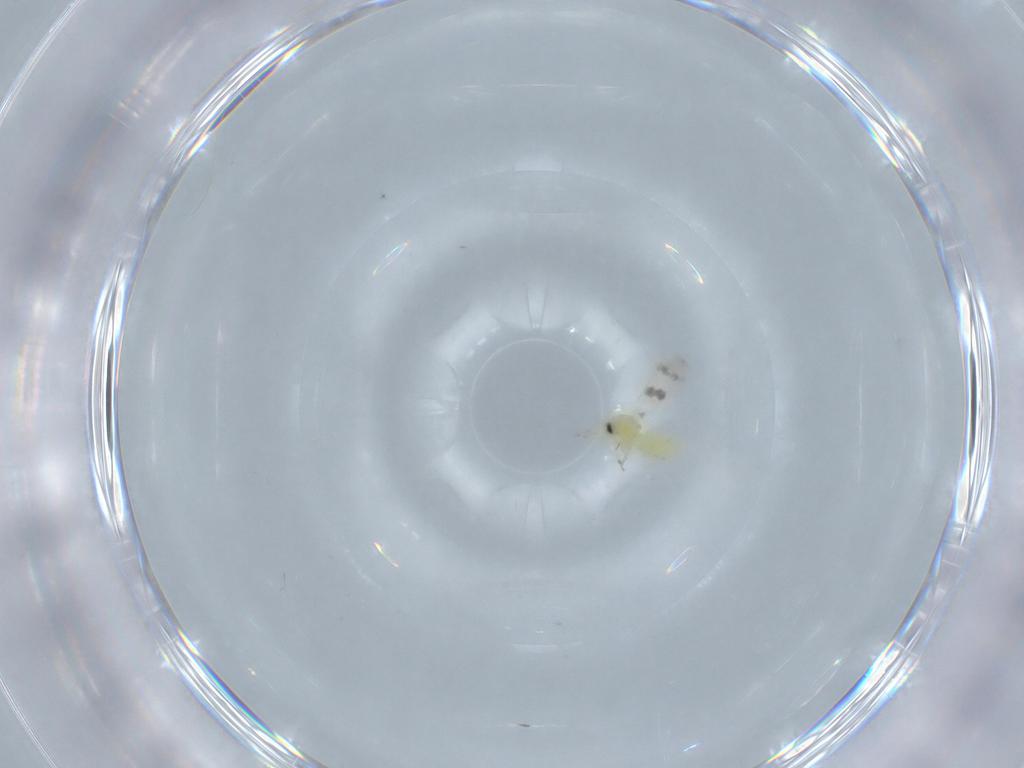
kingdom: Animalia
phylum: Arthropoda
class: Insecta
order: Hemiptera
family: Aleyrodidae
